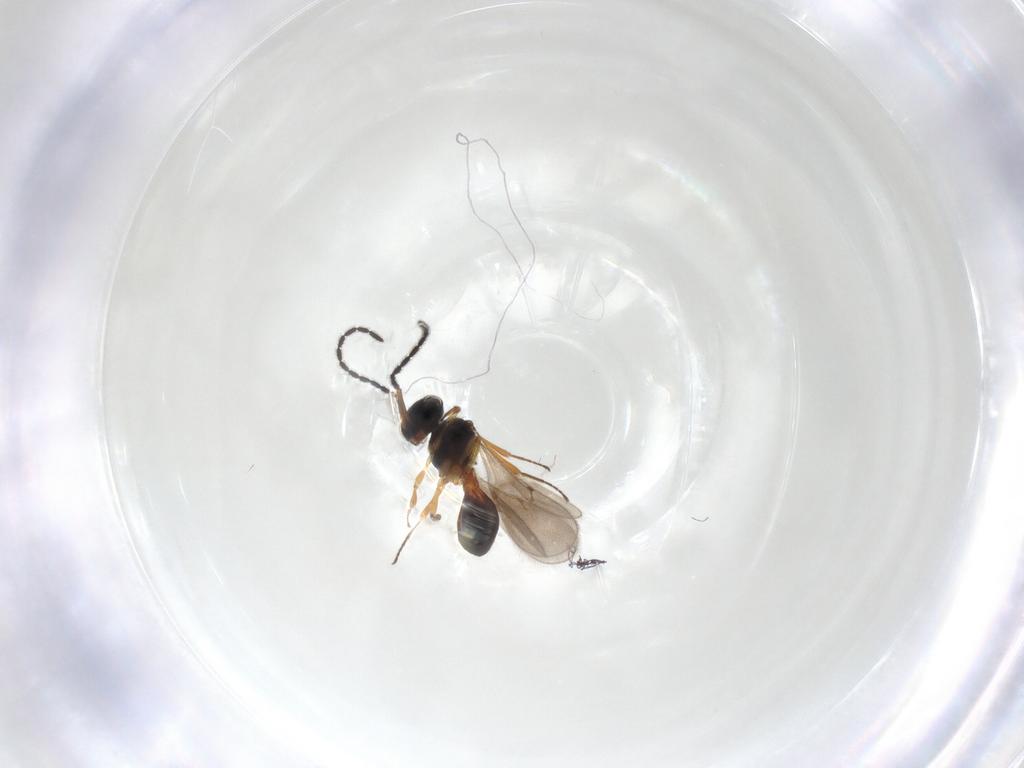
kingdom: Animalia
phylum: Arthropoda
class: Insecta
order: Hymenoptera
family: Scelionidae
